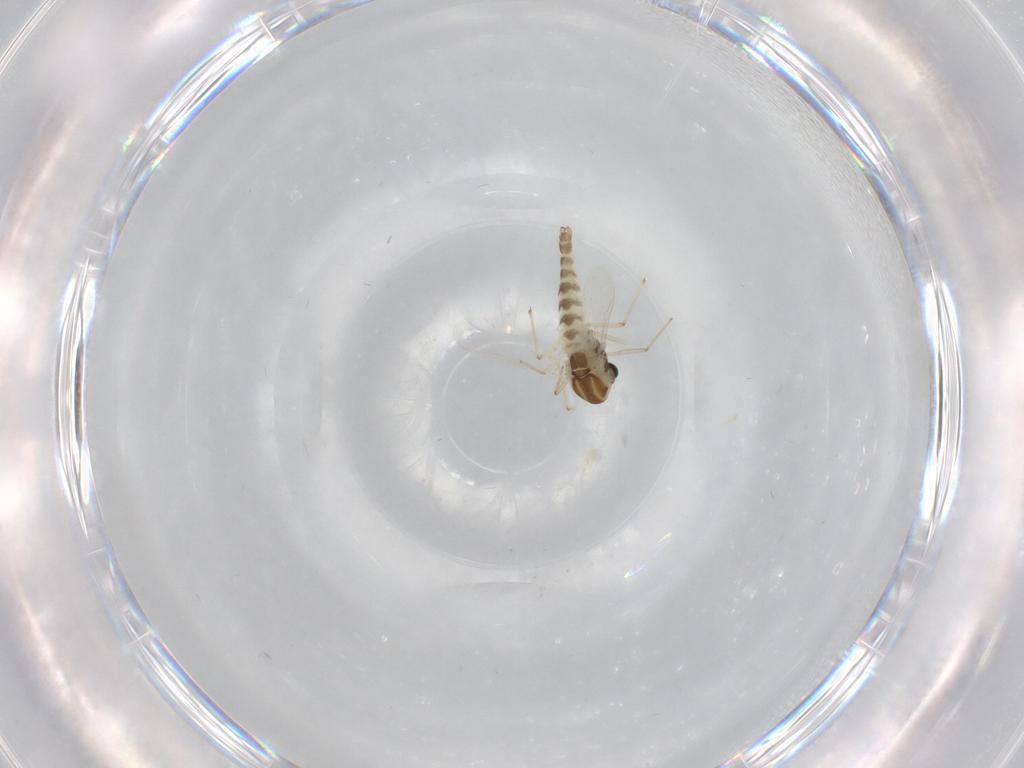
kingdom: Animalia
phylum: Arthropoda
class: Insecta
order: Diptera
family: Chironomidae
